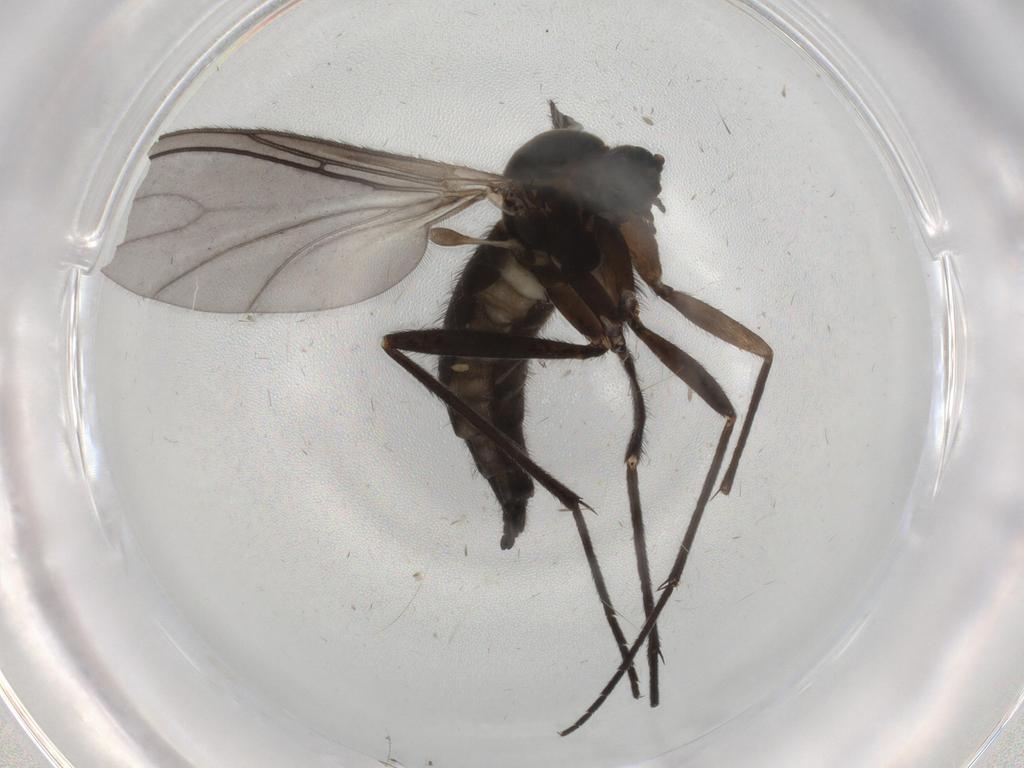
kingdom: Animalia
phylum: Arthropoda
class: Insecta
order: Diptera
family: Sciaridae
